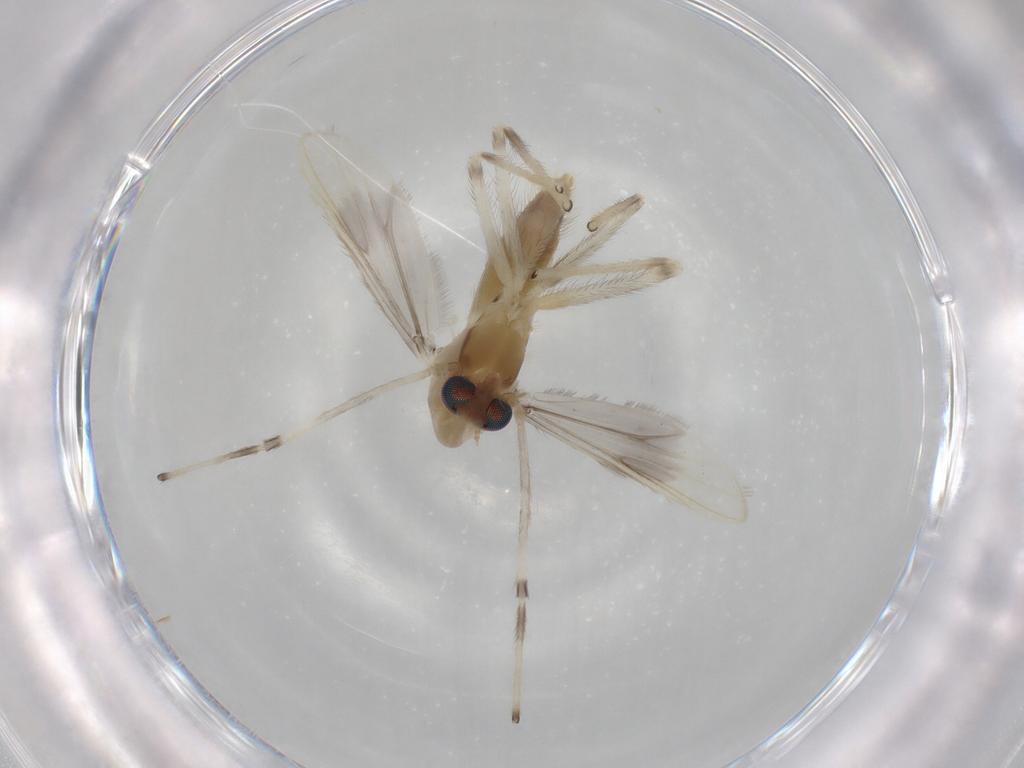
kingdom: Animalia
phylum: Arthropoda
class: Insecta
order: Diptera
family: Chironomidae
